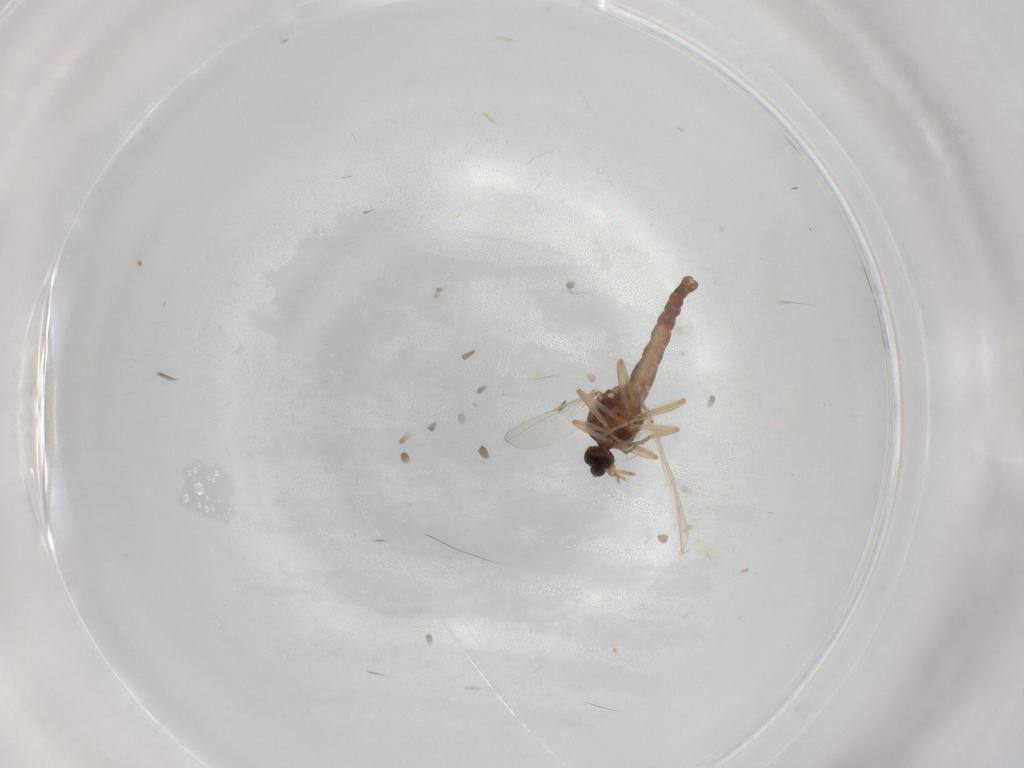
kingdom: Animalia
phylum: Arthropoda
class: Insecta
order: Diptera
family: Ceratopogonidae
